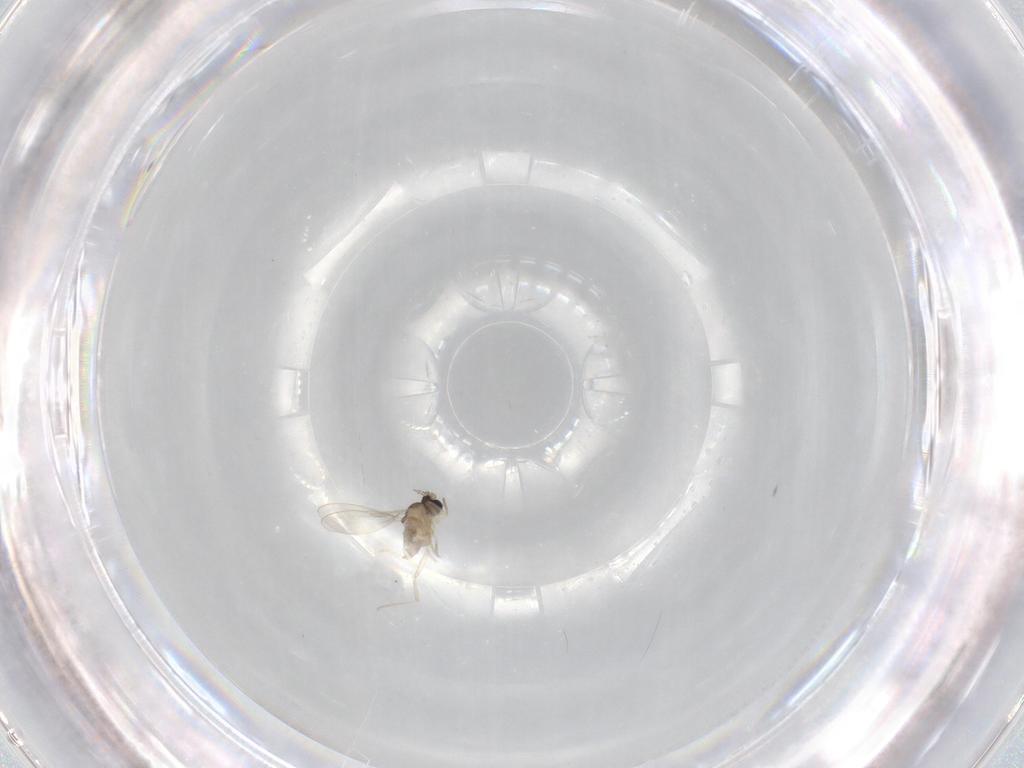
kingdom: Animalia
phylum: Arthropoda
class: Insecta
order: Diptera
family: Cecidomyiidae
